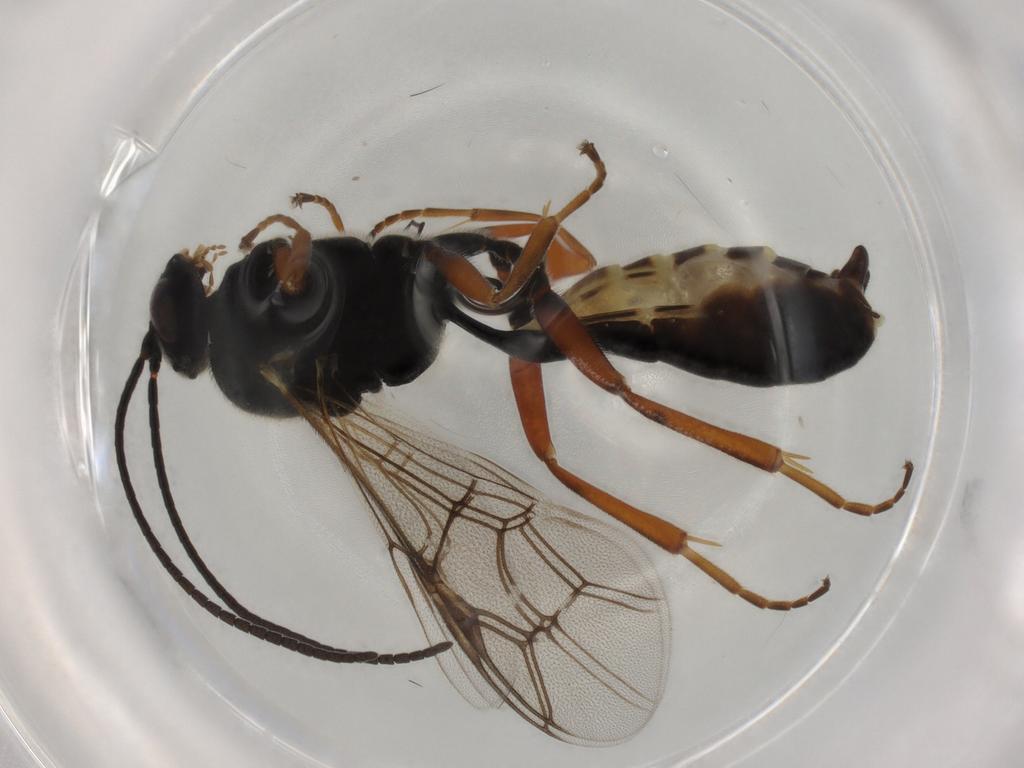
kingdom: Animalia
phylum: Arthropoda
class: Insecta
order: Hymenoptera
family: Ichneumonidae
